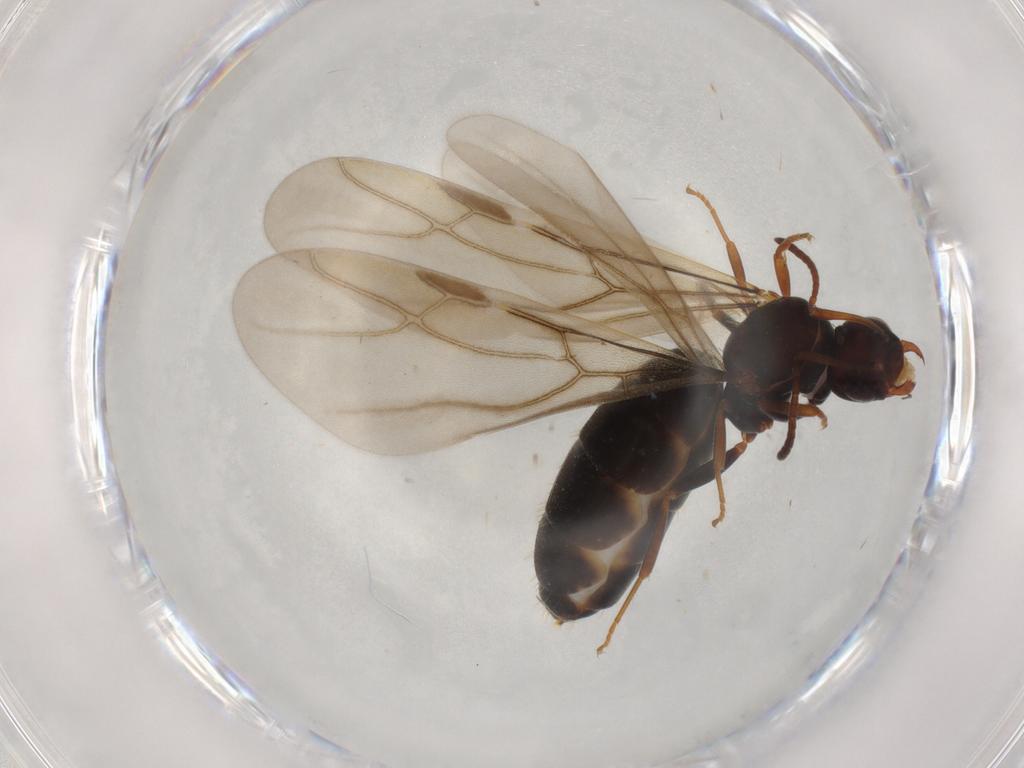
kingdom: Animalia
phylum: Arthropoda
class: Insecta
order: Hymenoptera
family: Formicidae
